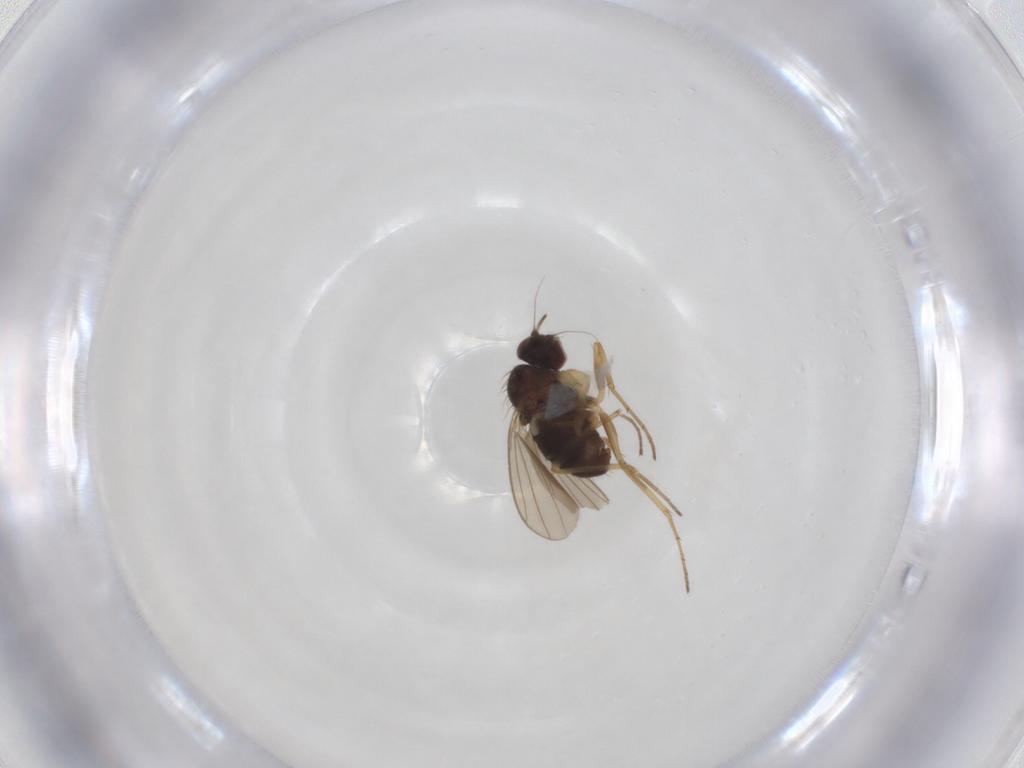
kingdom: Animalia
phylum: Arthropoda
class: Insecta
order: Diptera
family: Dolichopodidae
